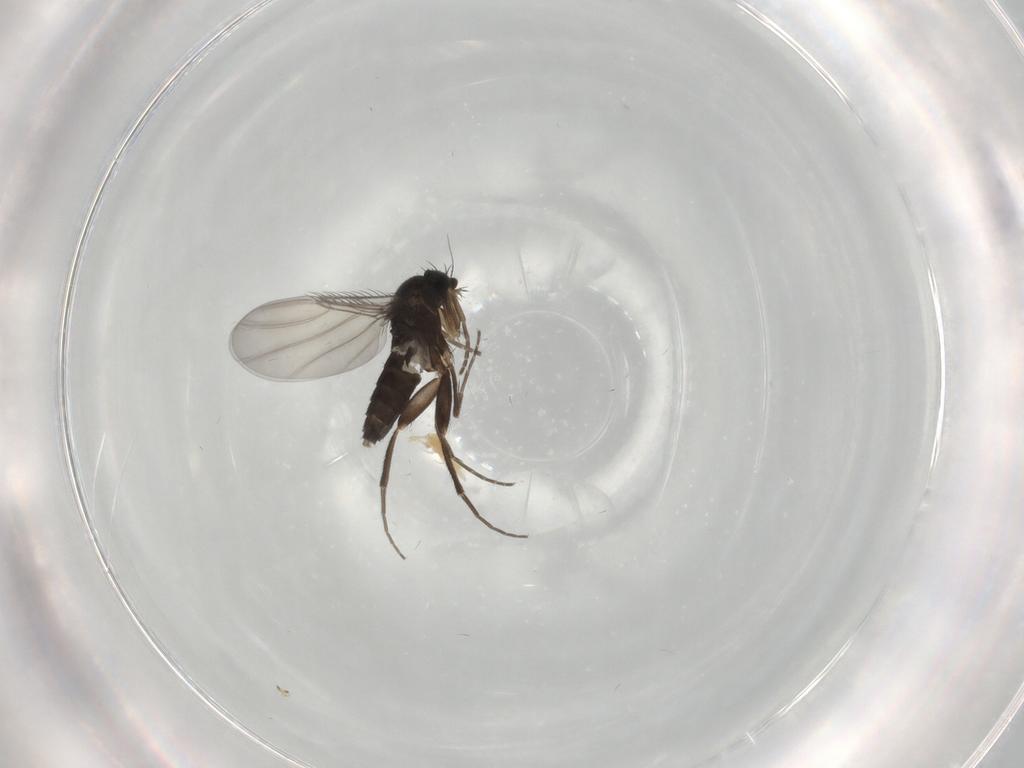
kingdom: Animalia
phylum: Arthropoda
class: Insecta
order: Diptera
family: Phoridae
